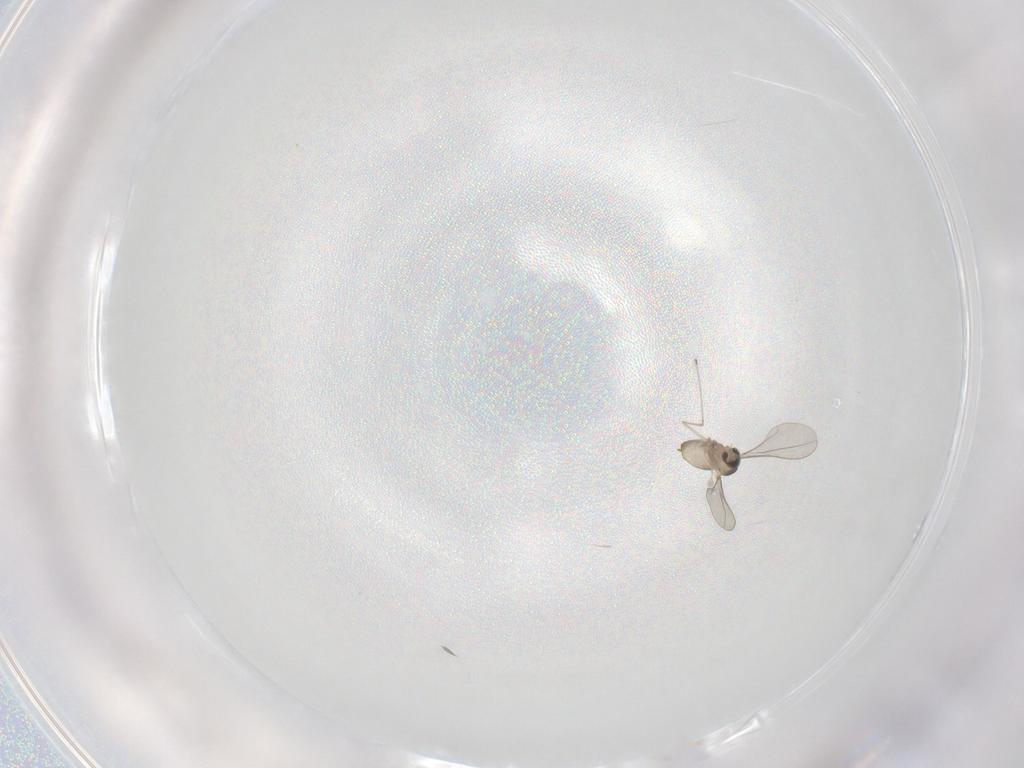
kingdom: Animalia
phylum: Arthropoda
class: Insecta
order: Diptera
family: Cecidomyiidae
